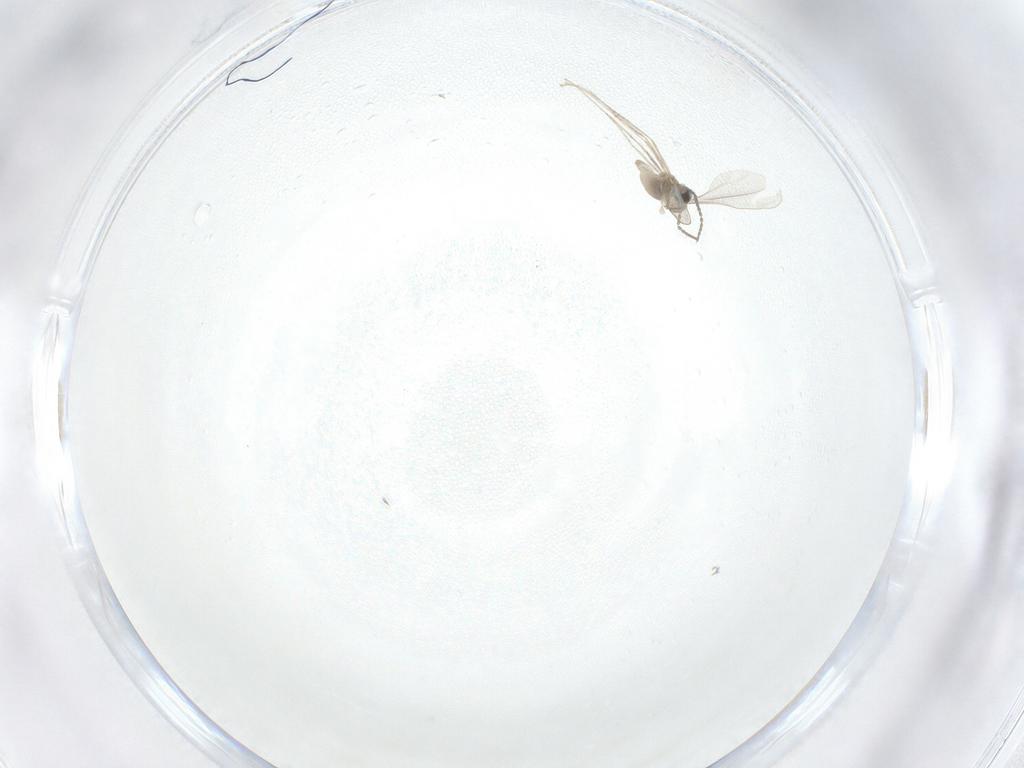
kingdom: Animalia
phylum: Arthropoda
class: Insecta
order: Diptera
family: Cecidomyiidae
